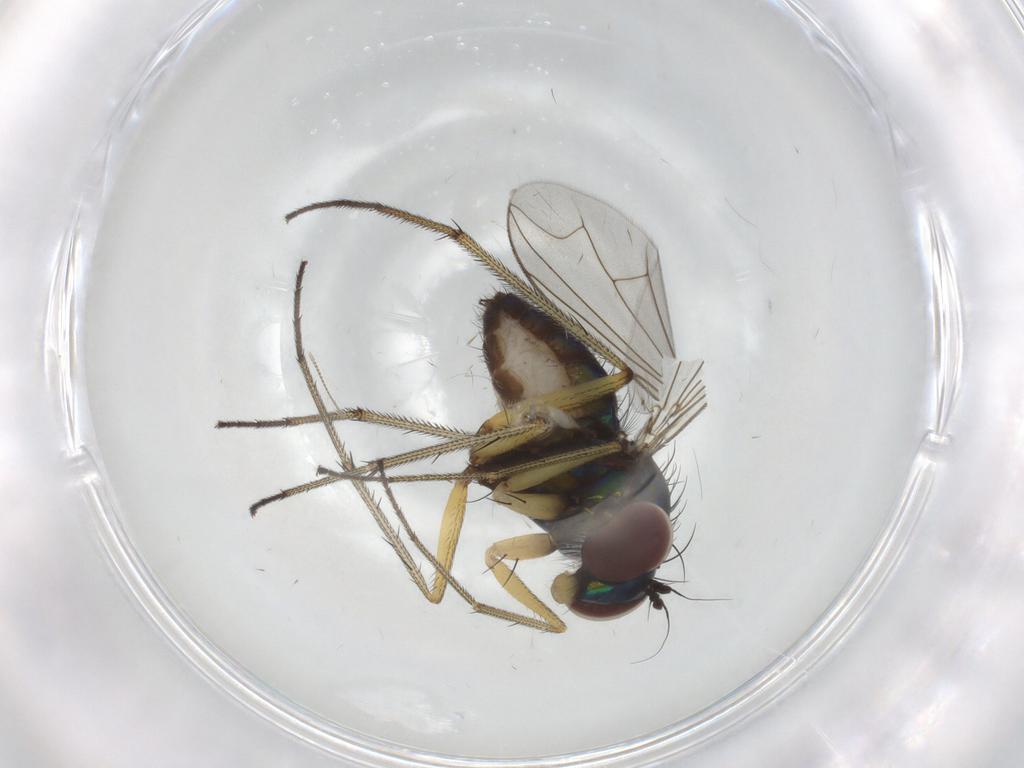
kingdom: Animalia
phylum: Arthropoda
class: Insecta
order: Diptera
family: Dolichopodidae
